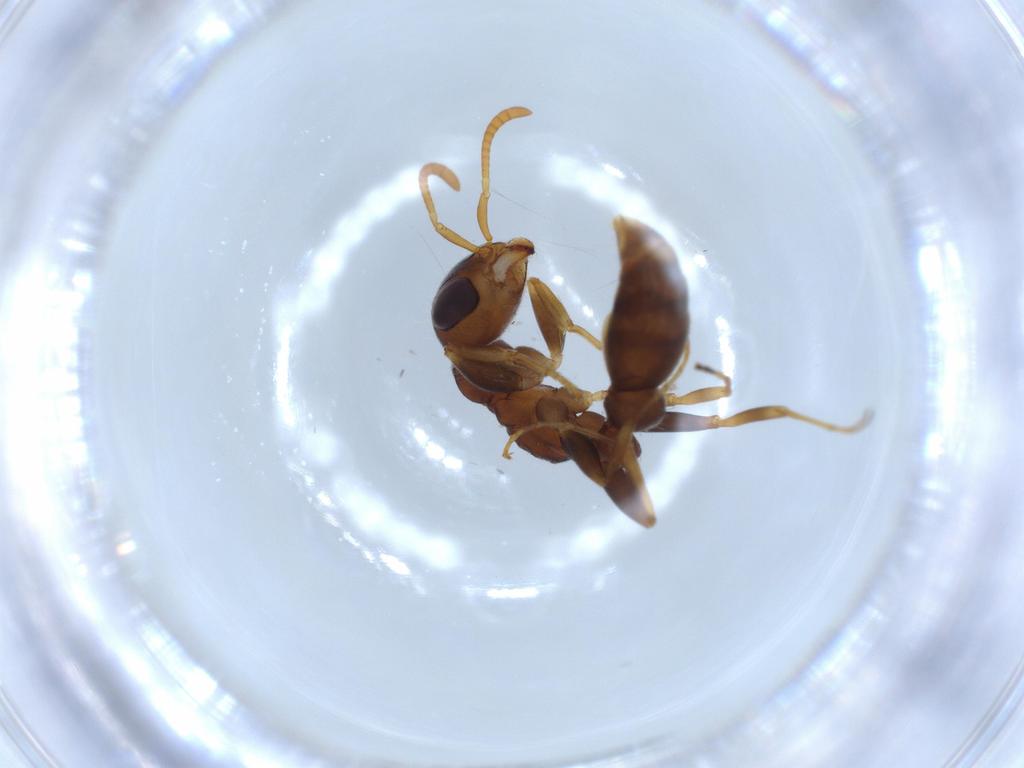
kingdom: Animalia
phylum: Arthropoda
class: Insecta
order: Hymenoptera
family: Formicidae
